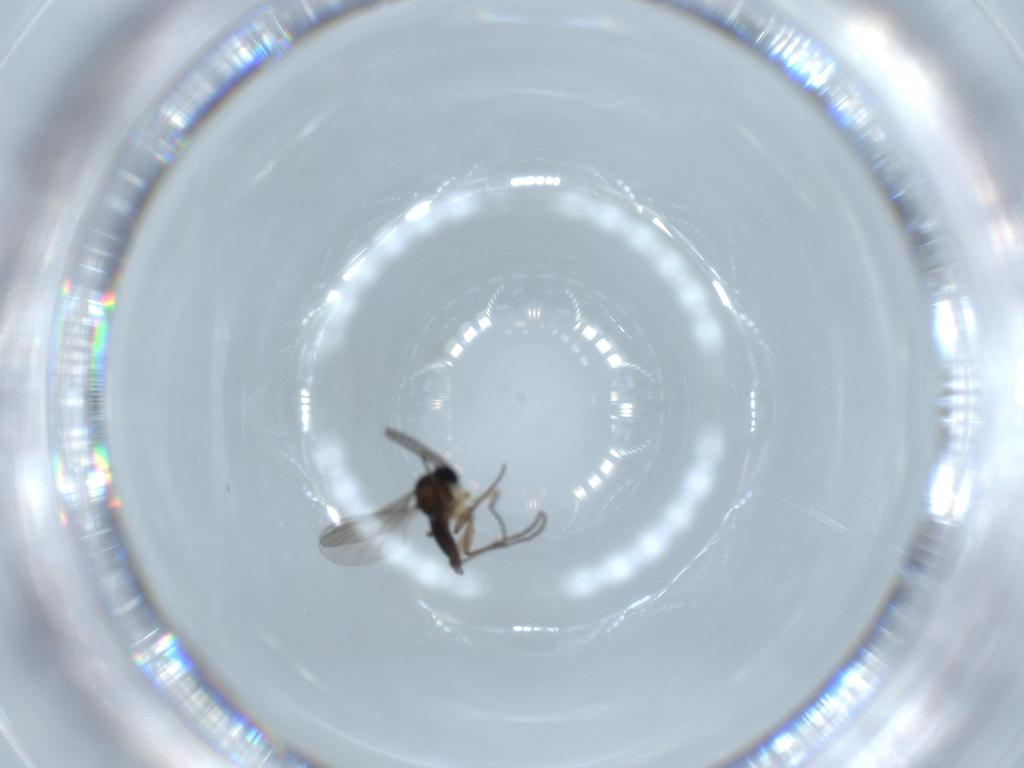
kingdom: Animalia
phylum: Arthropoda
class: Insecta
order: Diptera
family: Sciaridae
